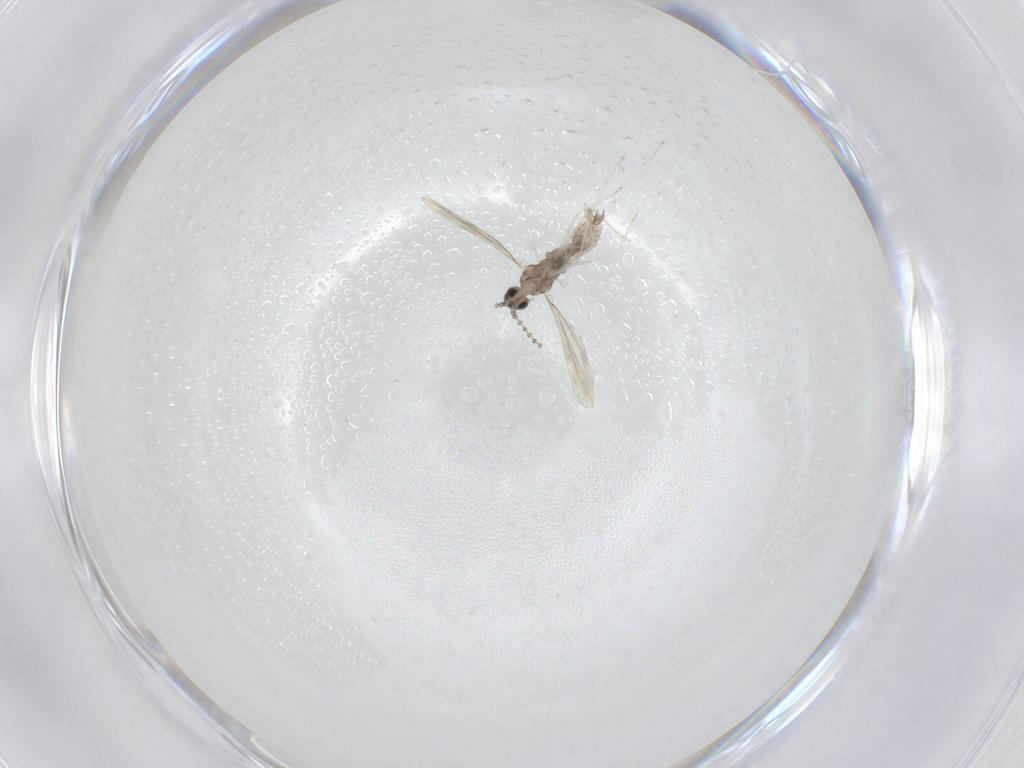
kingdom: Animalia
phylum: Arthropoda
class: Insecta
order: Diptera
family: Cecidomyiidae
